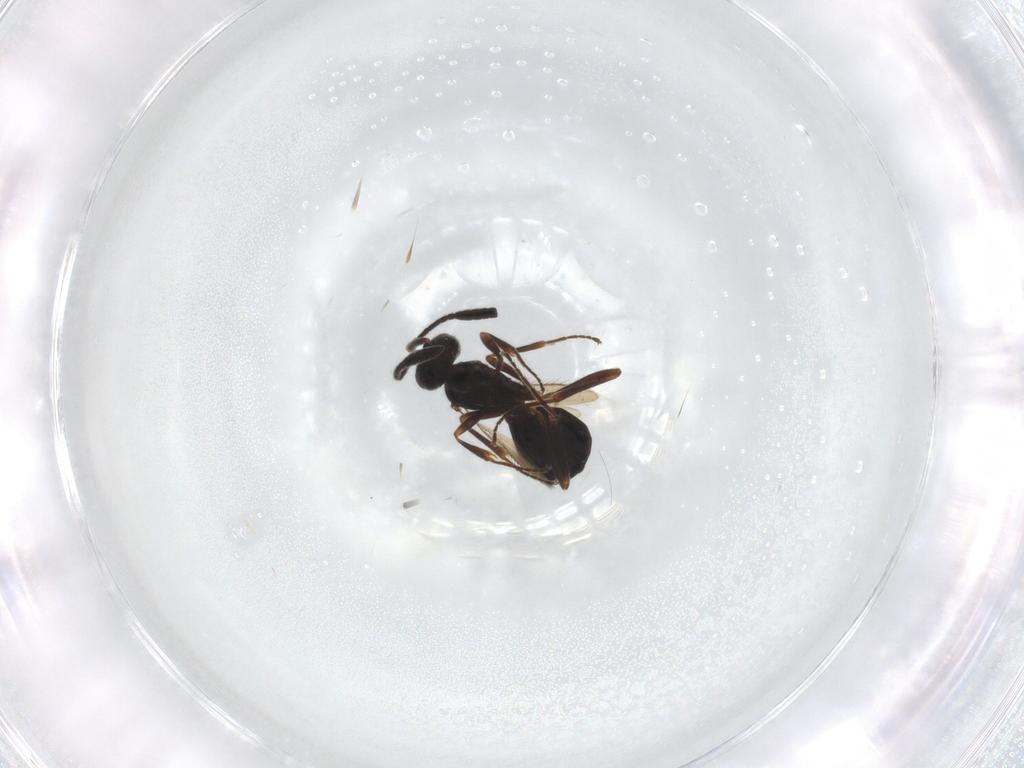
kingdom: Animalia
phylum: Arthropoda
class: Insecta
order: Hymenoptera
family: Scelionidae
